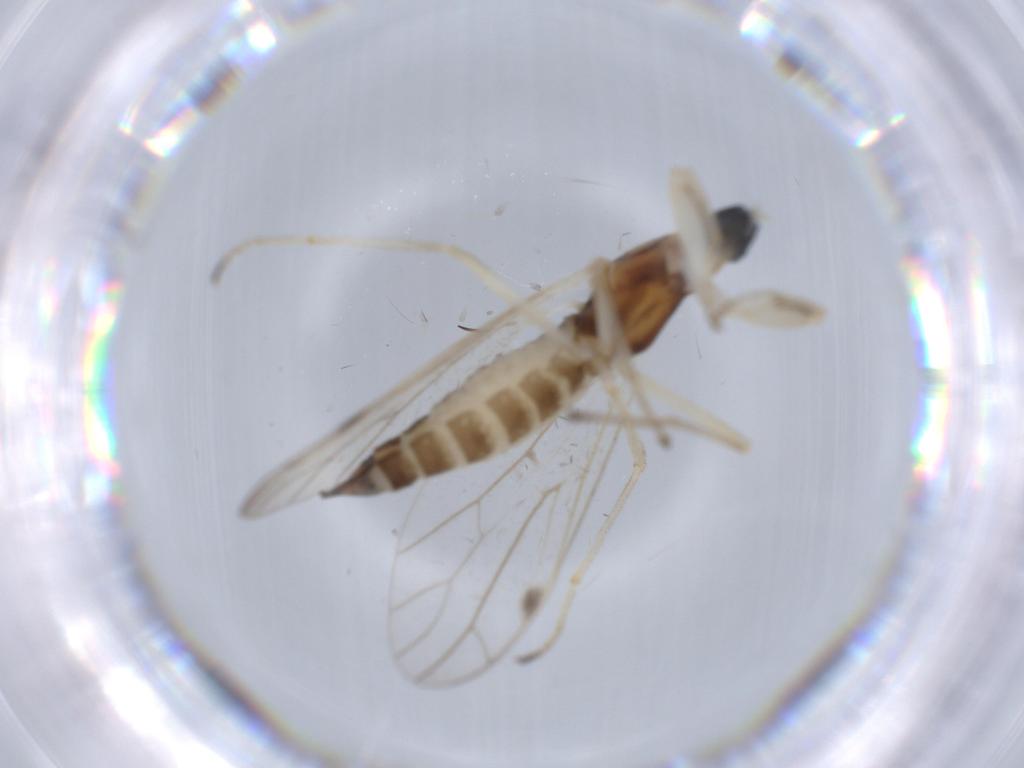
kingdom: Animalia
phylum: Arthropoda
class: Insecta
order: Diptera
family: Empididae
